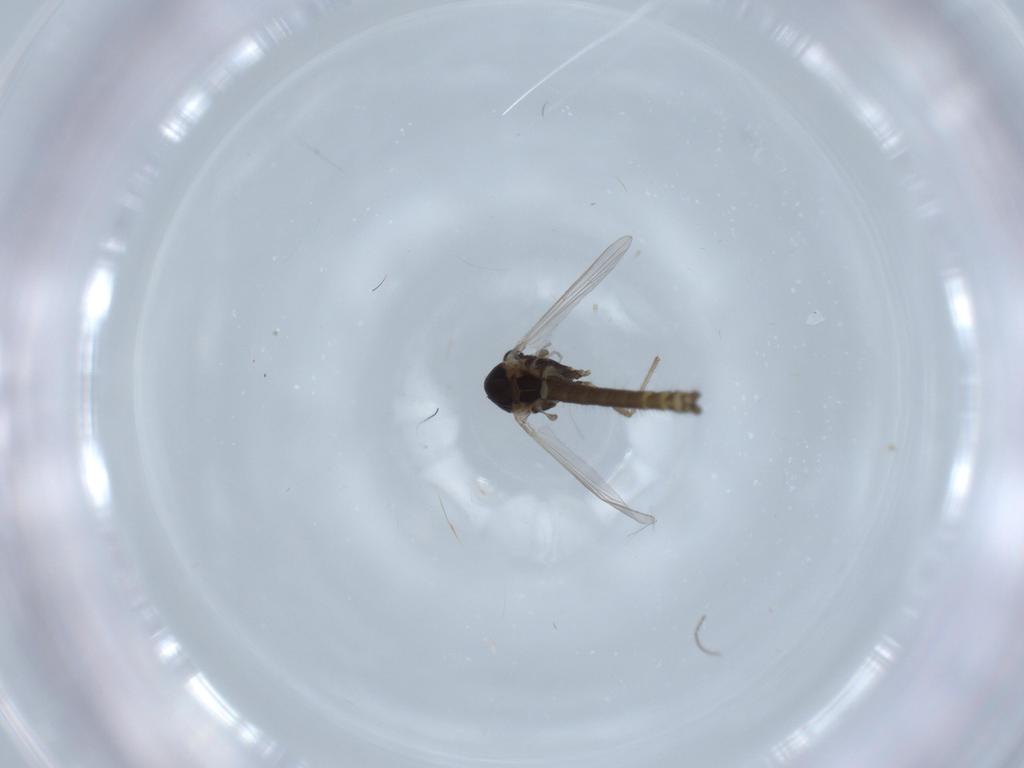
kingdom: Animalia
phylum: Arthropoda
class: Insecta
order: Diptera
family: Chironomidae
